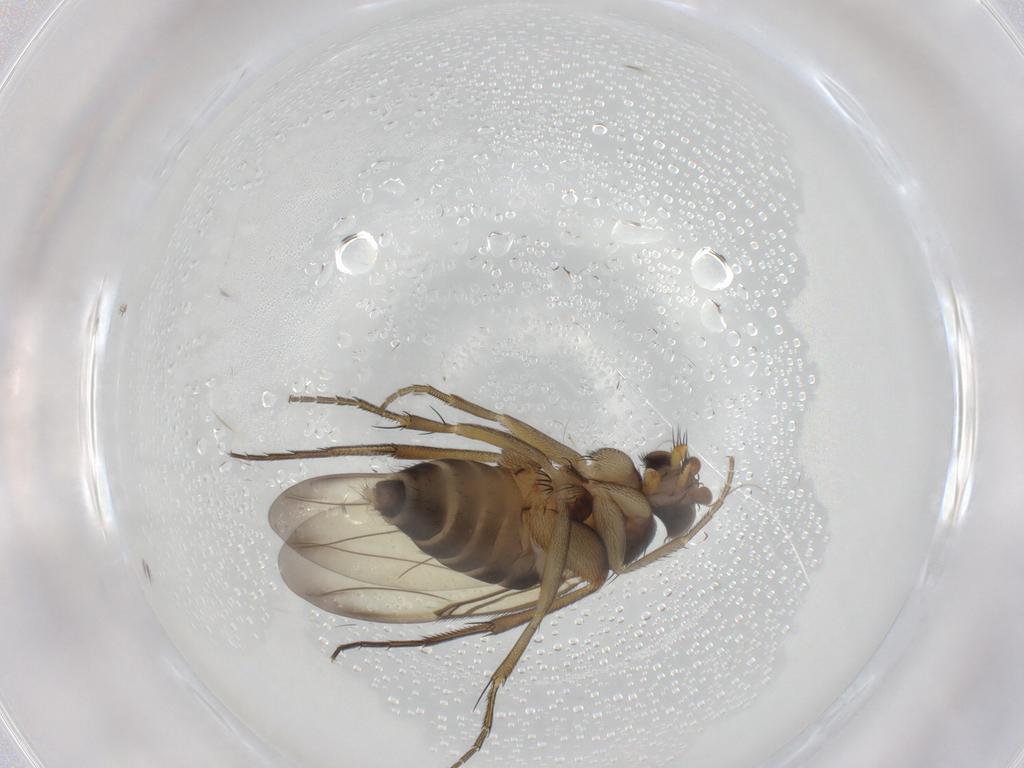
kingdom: Animalia
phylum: Arthropoda
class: Insecta
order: Diptera
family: Phoridae
